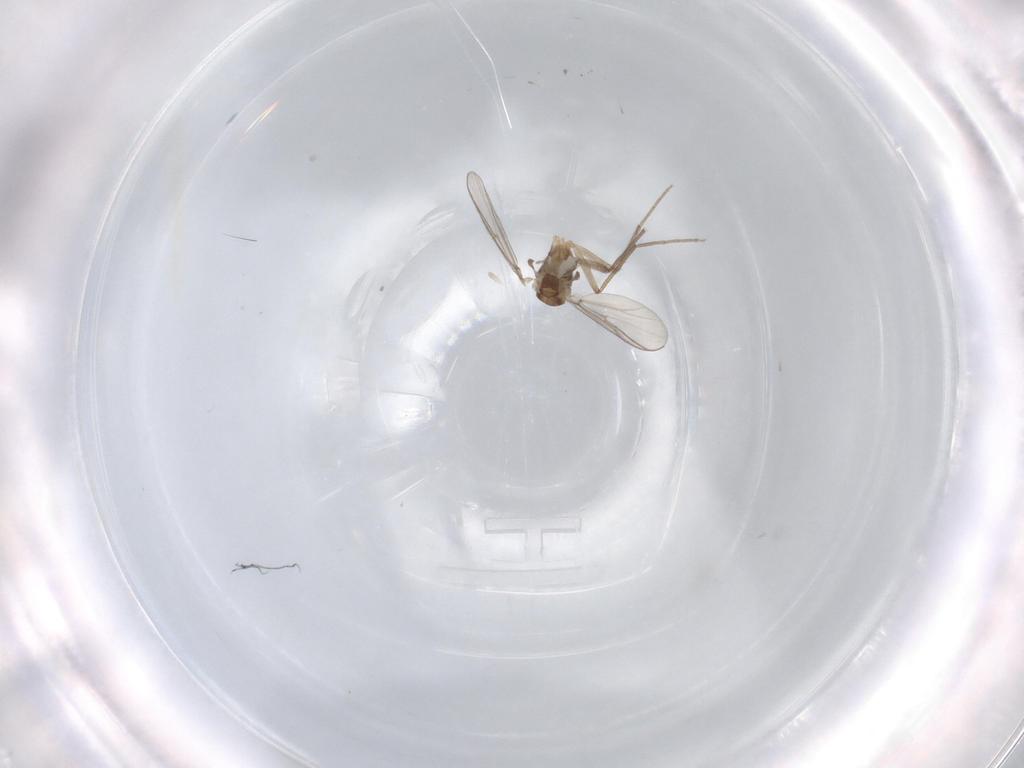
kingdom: Animalia
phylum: Arthropoda
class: Insecta
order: Diptera
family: Chironomidae
